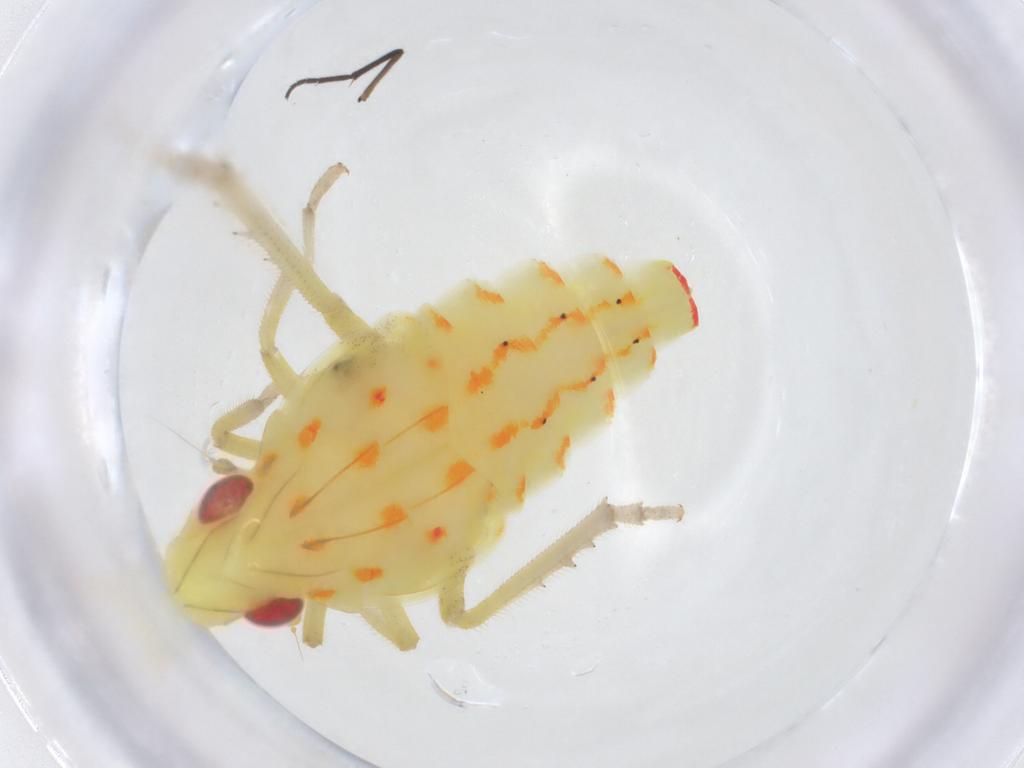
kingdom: Animalia
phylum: Arthropoda
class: Insecta
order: Hemiptera
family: Tropiduchidae
